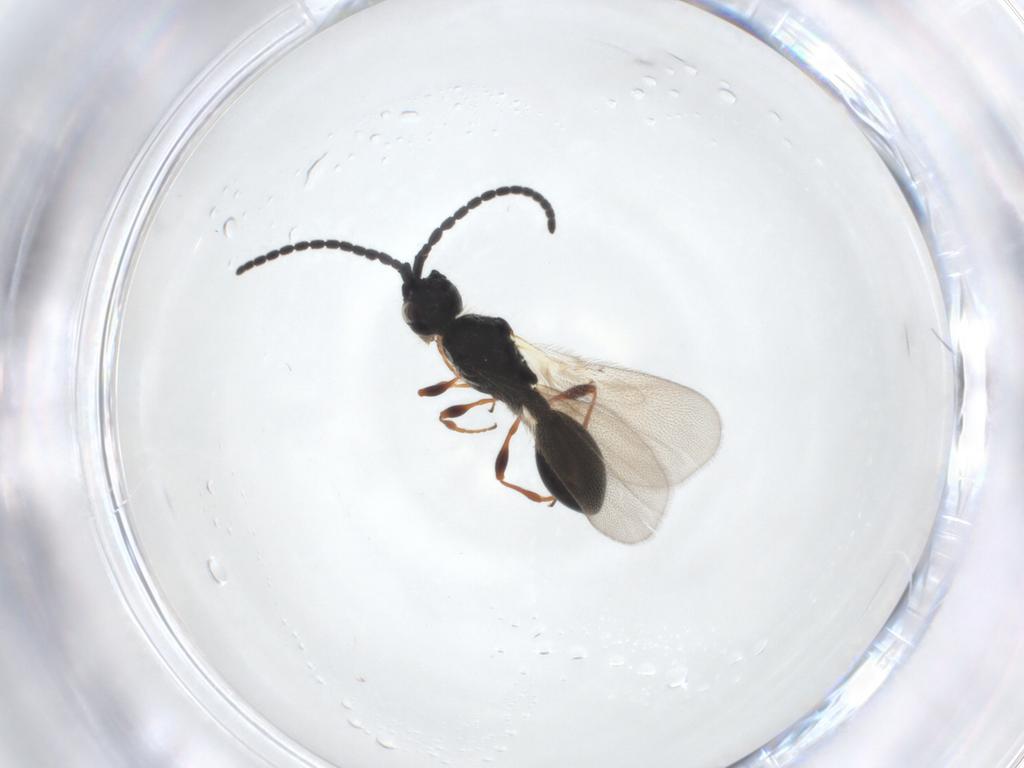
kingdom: Animalia
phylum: Arthropoda
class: Insecta
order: Hymenoptera
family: Diapriidae
